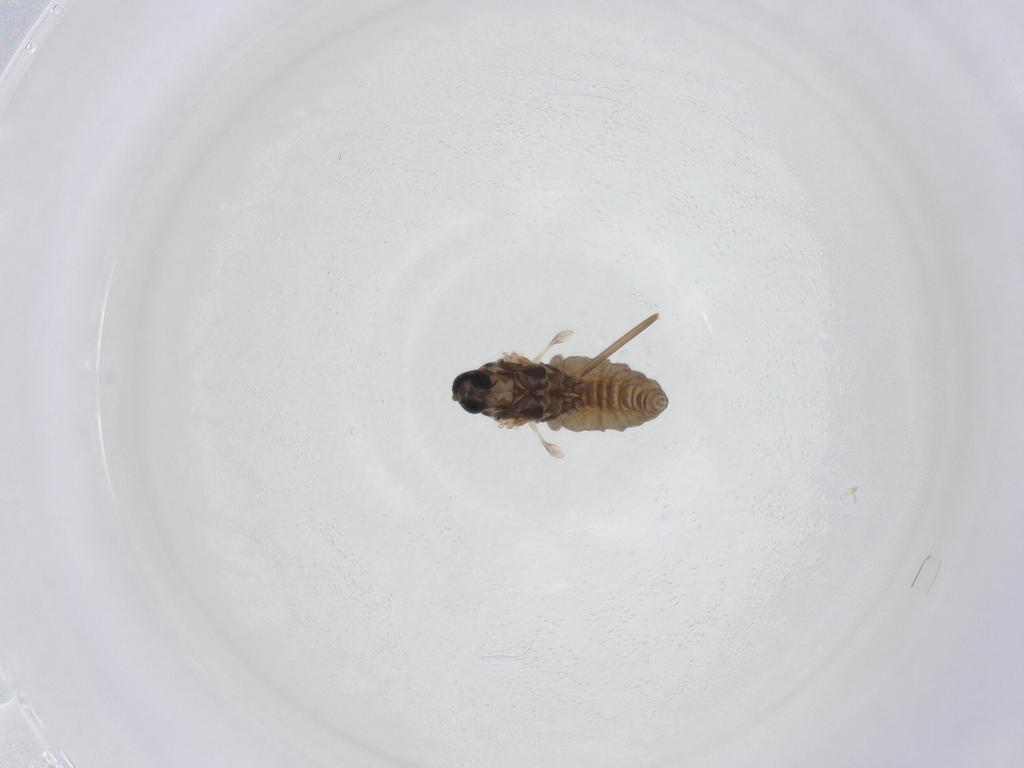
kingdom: Animalia
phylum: Arthropoda
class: Insecta
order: Diptera
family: Cecidomyiidae
